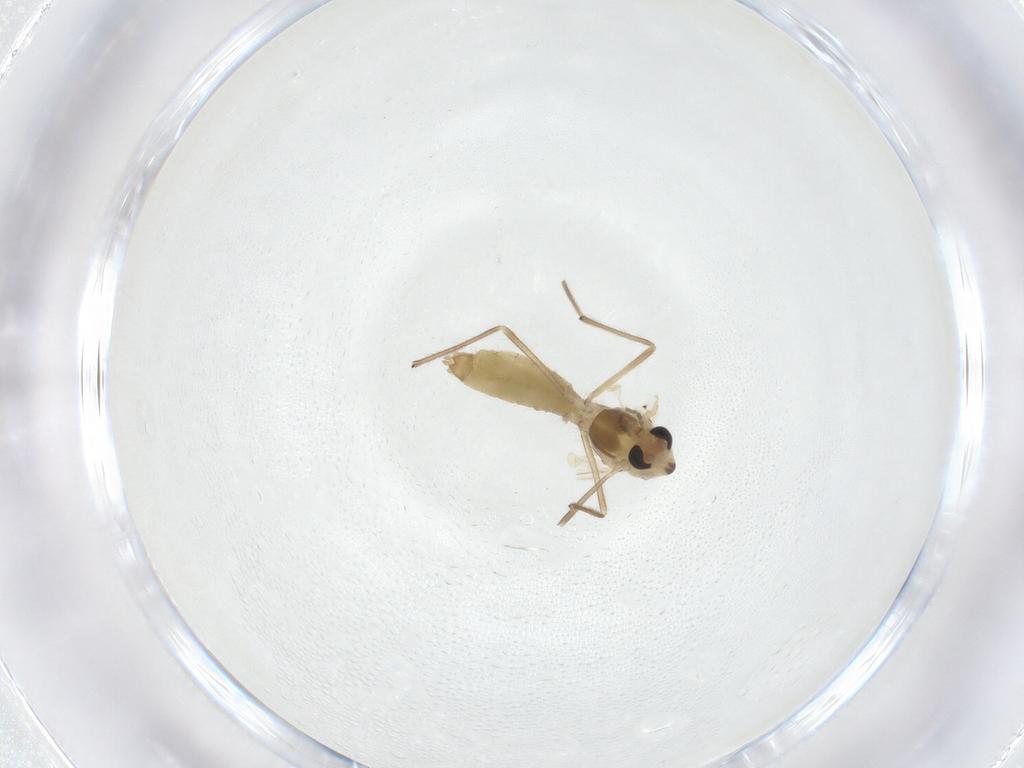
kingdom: Animalia
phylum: Arthropoda
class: Insecta
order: Diptera
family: Chironomidae
